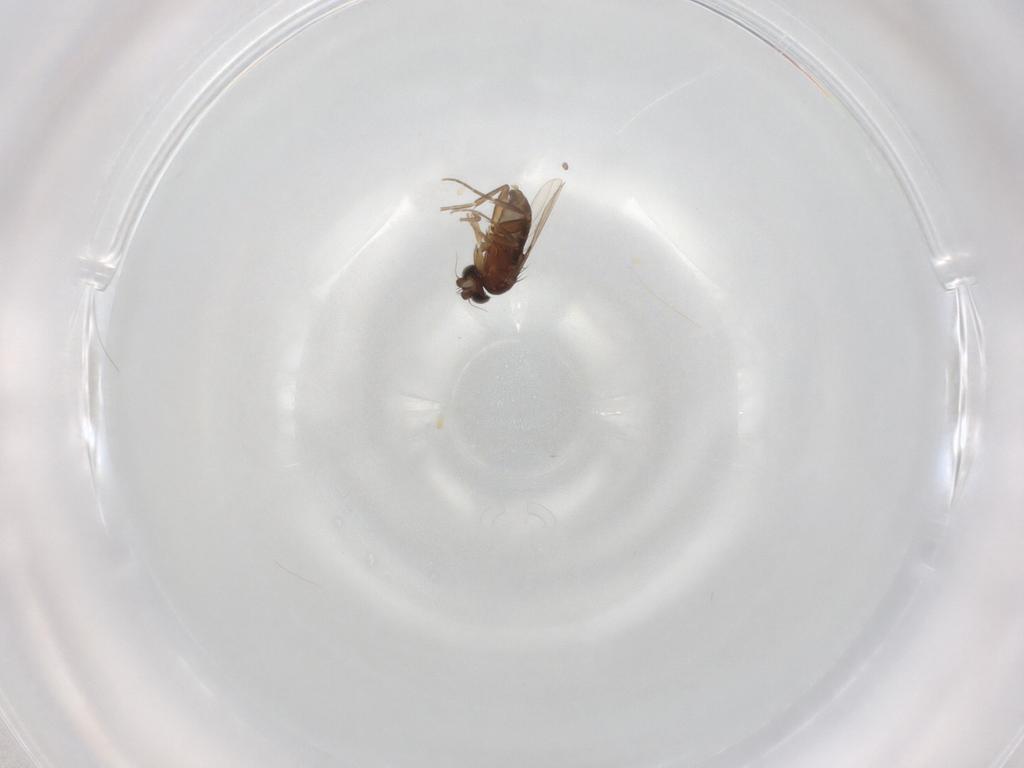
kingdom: Animalia
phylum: Arthropoda
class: Insecta
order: Diptera
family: Phoridae
